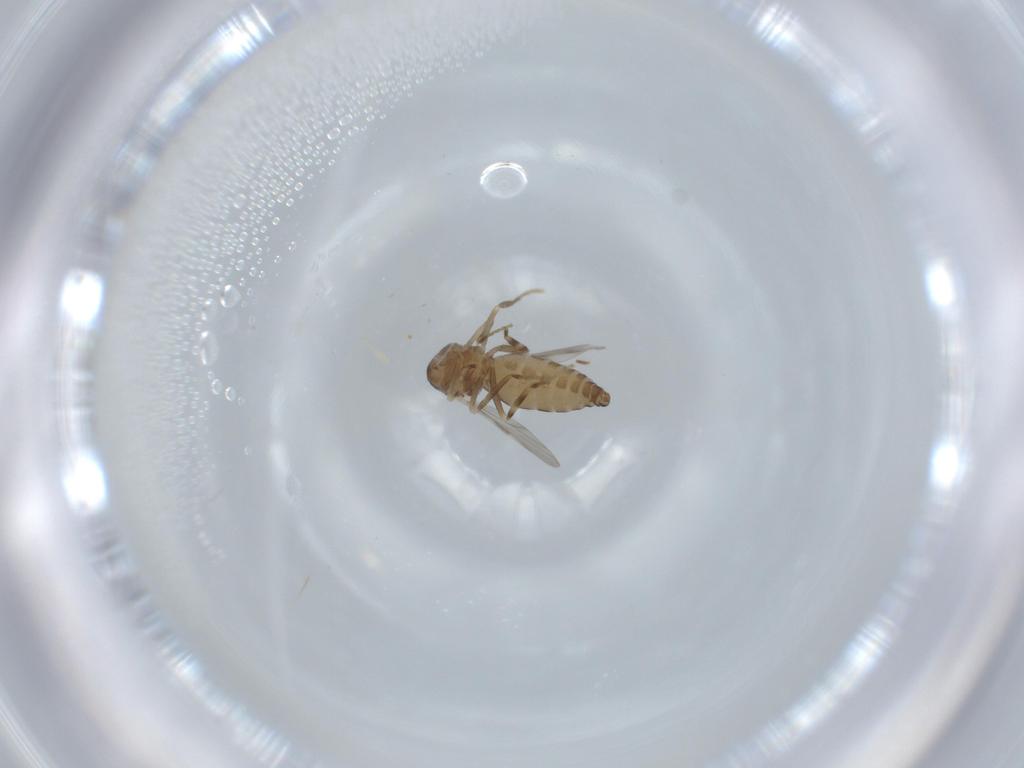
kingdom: Animalia
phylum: Arthropoda
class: Insecta
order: Diptera
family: Ceratopogonidae
